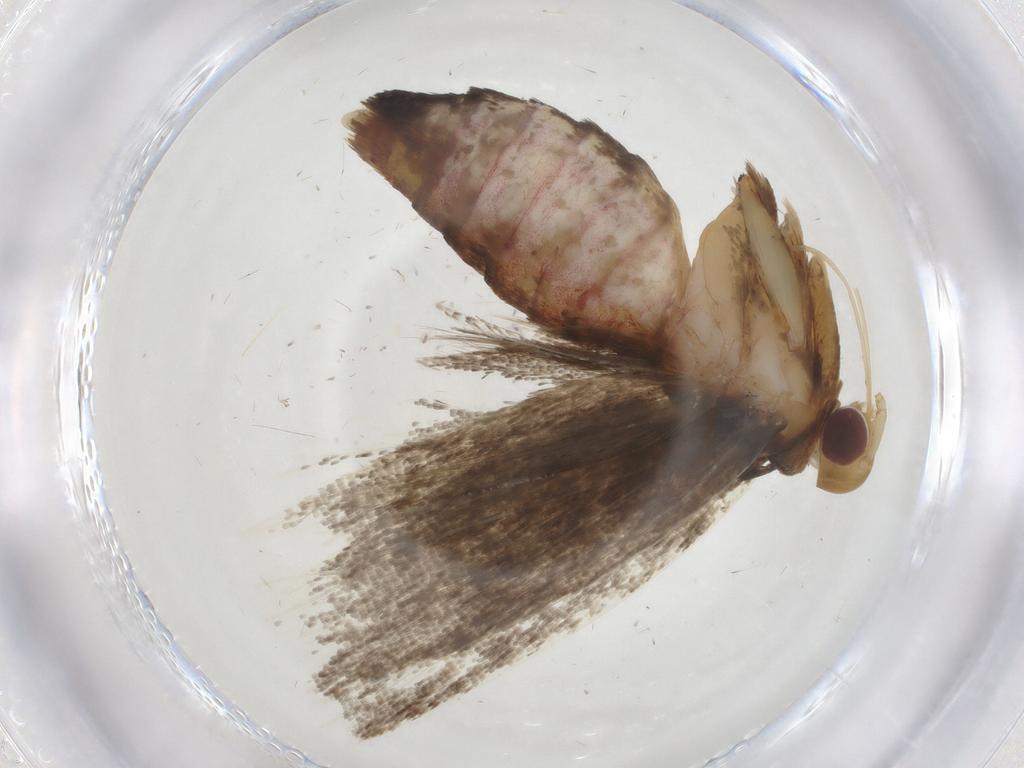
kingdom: Animalia
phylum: Arthropoda
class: Insecta
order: Lepidoptera
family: Lecithoceridae
